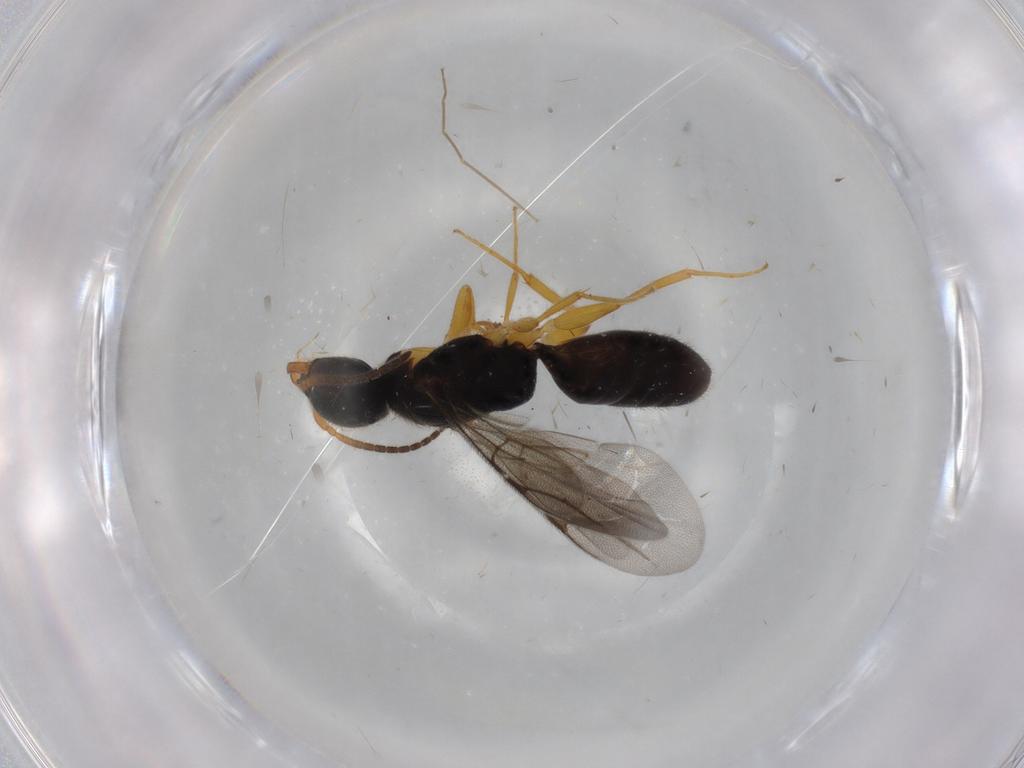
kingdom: Animalia
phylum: Arthropoda
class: Insecta
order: Hymenoptera
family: Bethylidae
